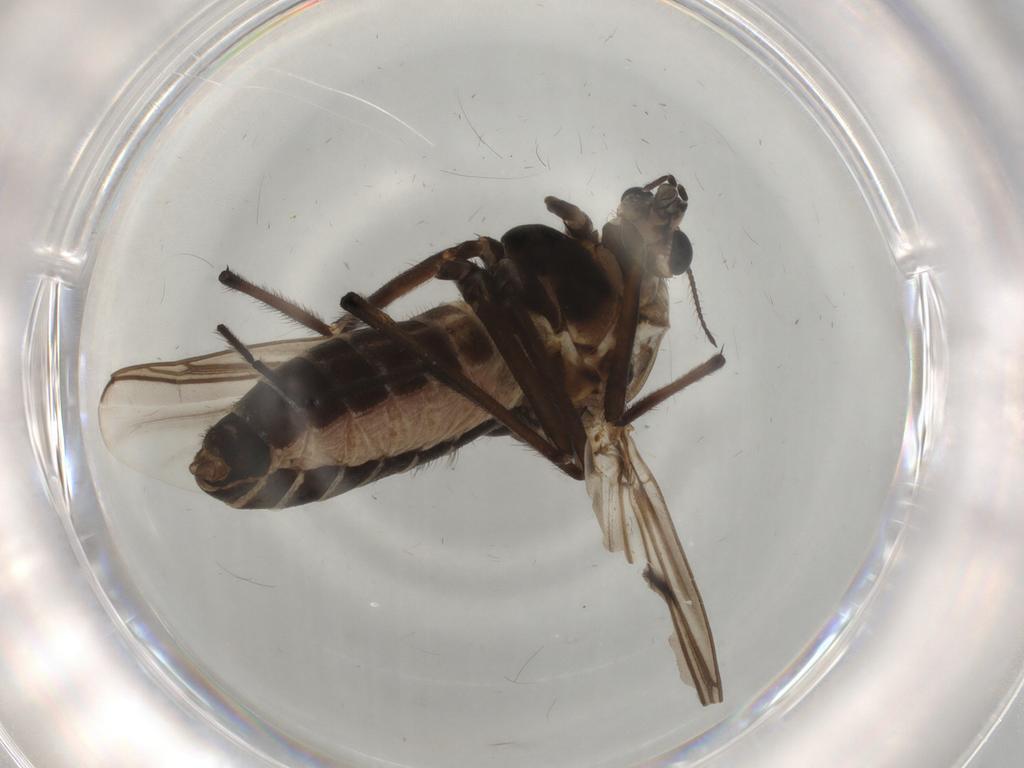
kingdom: Animalia
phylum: Arthropoda
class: Insecta
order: Diptera
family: Chironomidae
